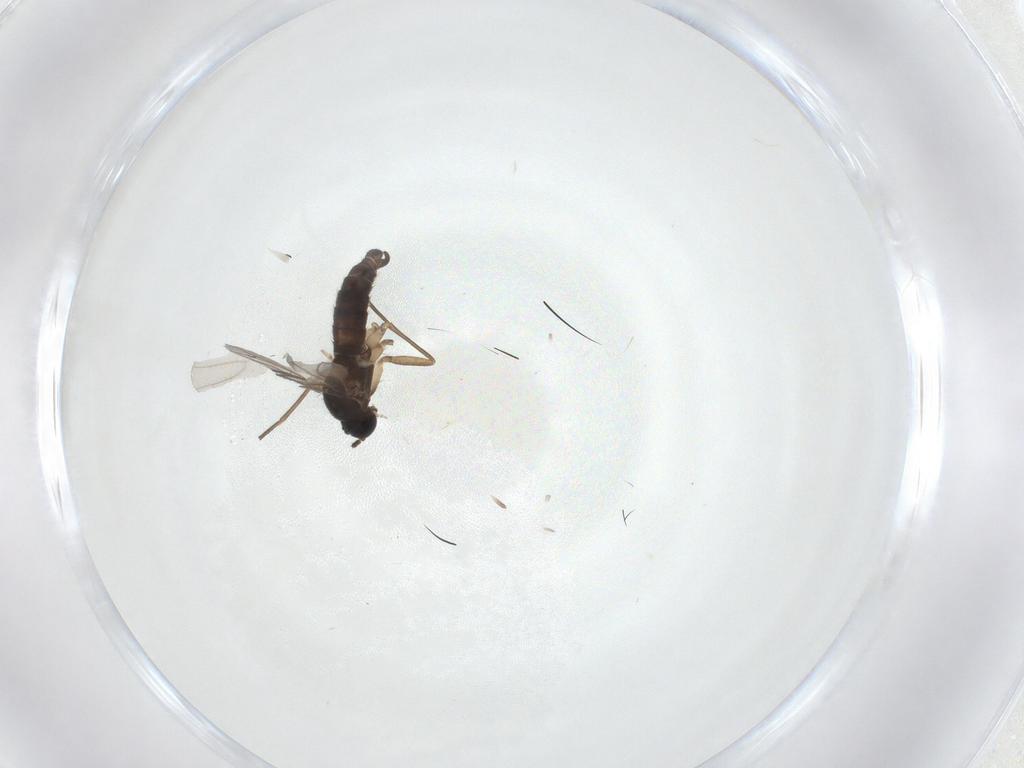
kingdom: Animalia
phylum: Arthropoda
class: Insecta
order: Diptera
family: Sciaridae
